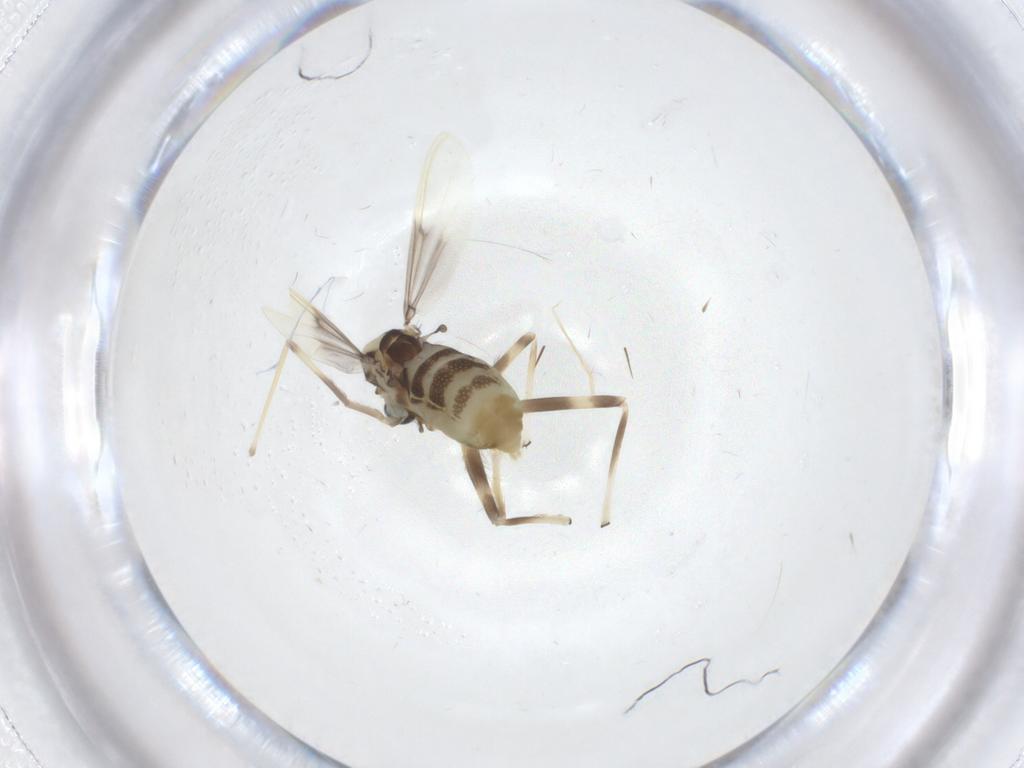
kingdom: Animalia
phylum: Arthropoda
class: Insecta
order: Diptera
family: Chironomidae
